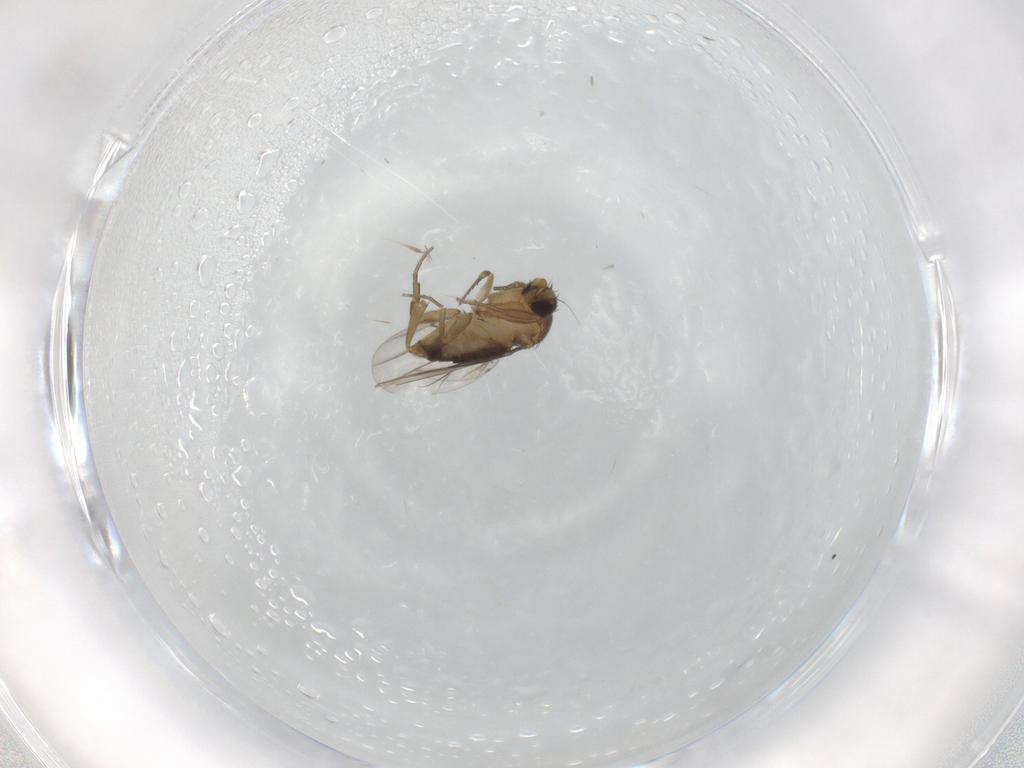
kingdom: Animalia
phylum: Arthropoda
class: Insecta
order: Diptera
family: Phoridae
